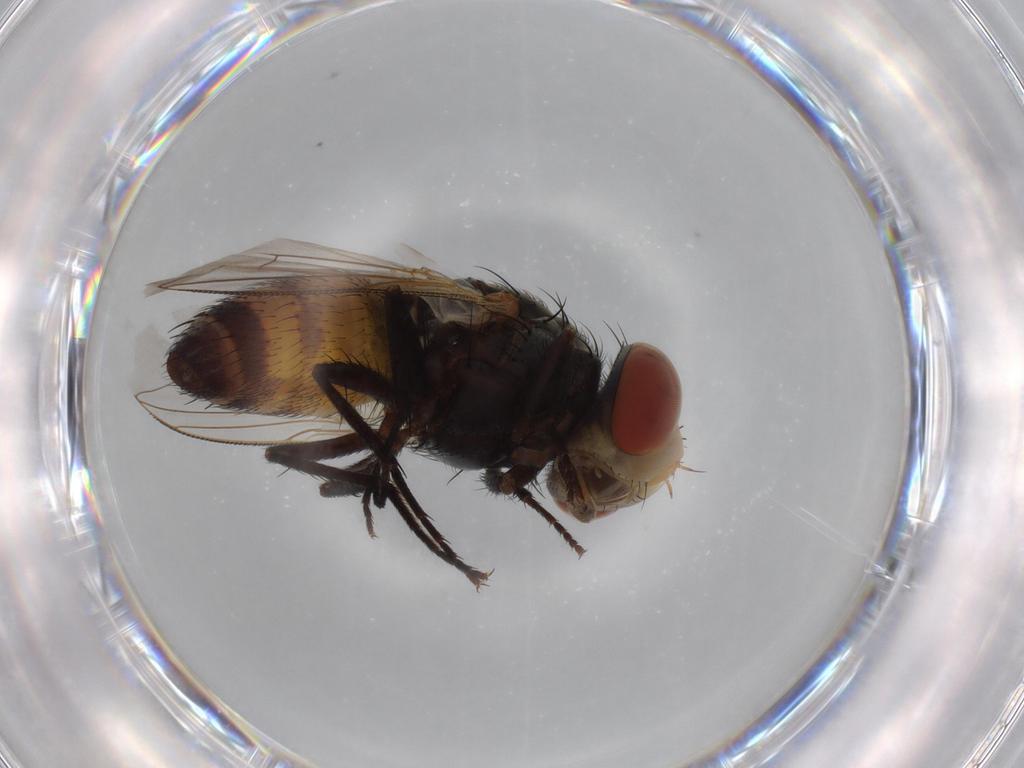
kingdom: Animalia
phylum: Arthropoda
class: Insecta
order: Diptera
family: Sarcophagidae
